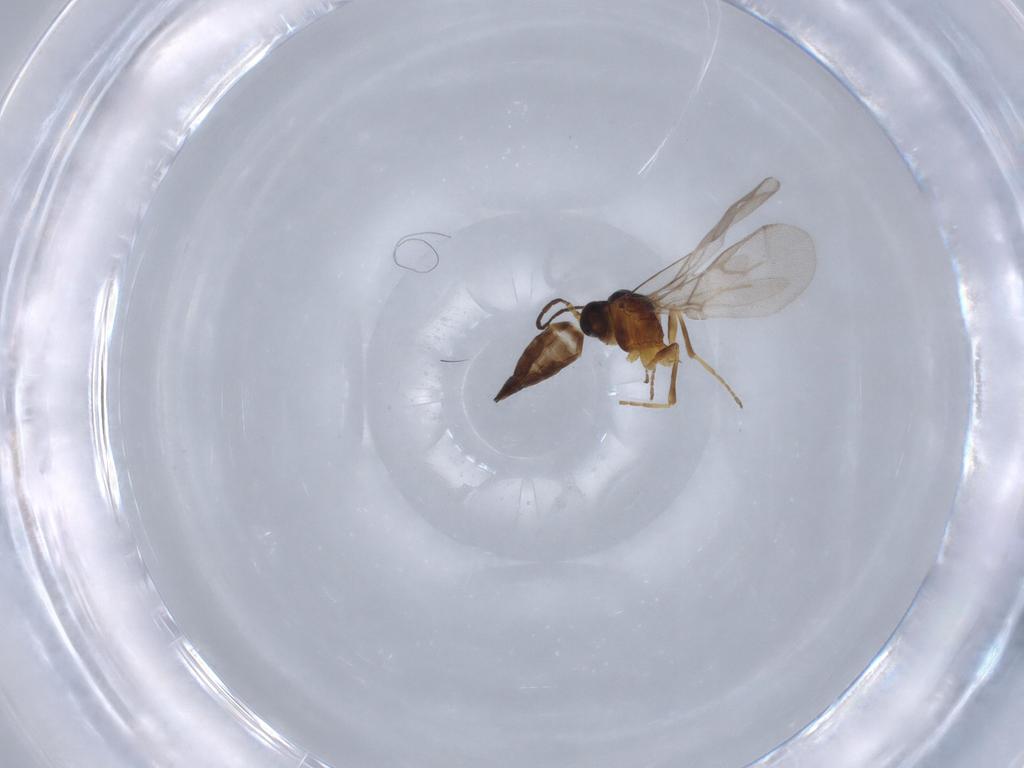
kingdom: Animalia
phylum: Arthropoda
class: Insecta
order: Hymenoptera
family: Braconidae
